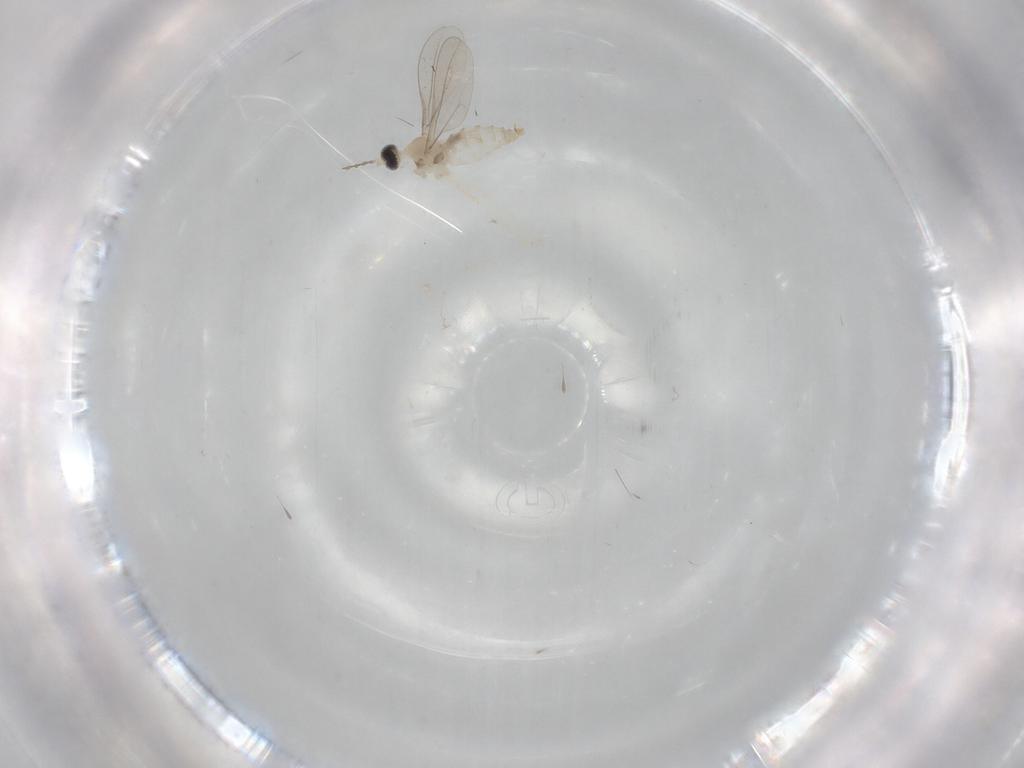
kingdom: Animalia
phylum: Arthropoda
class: Insecta
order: Diptera
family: Cecidomyiidae
